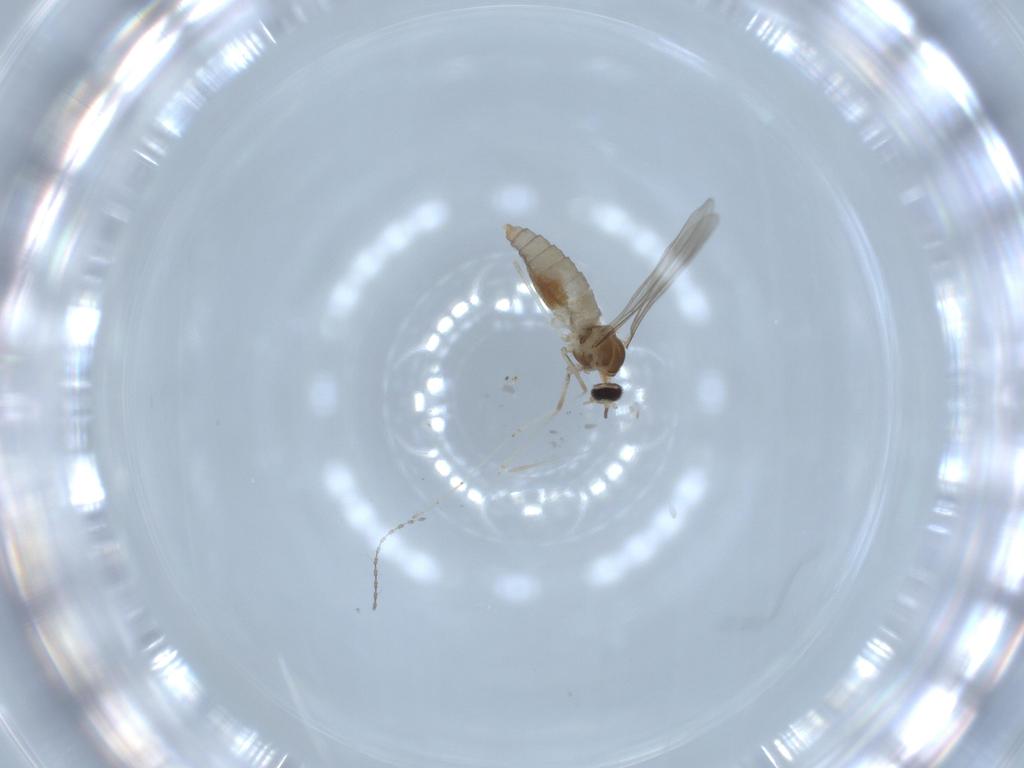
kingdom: Animalia
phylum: Arthropoda
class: Insecta
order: Diptera
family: Cecidomyiidae
